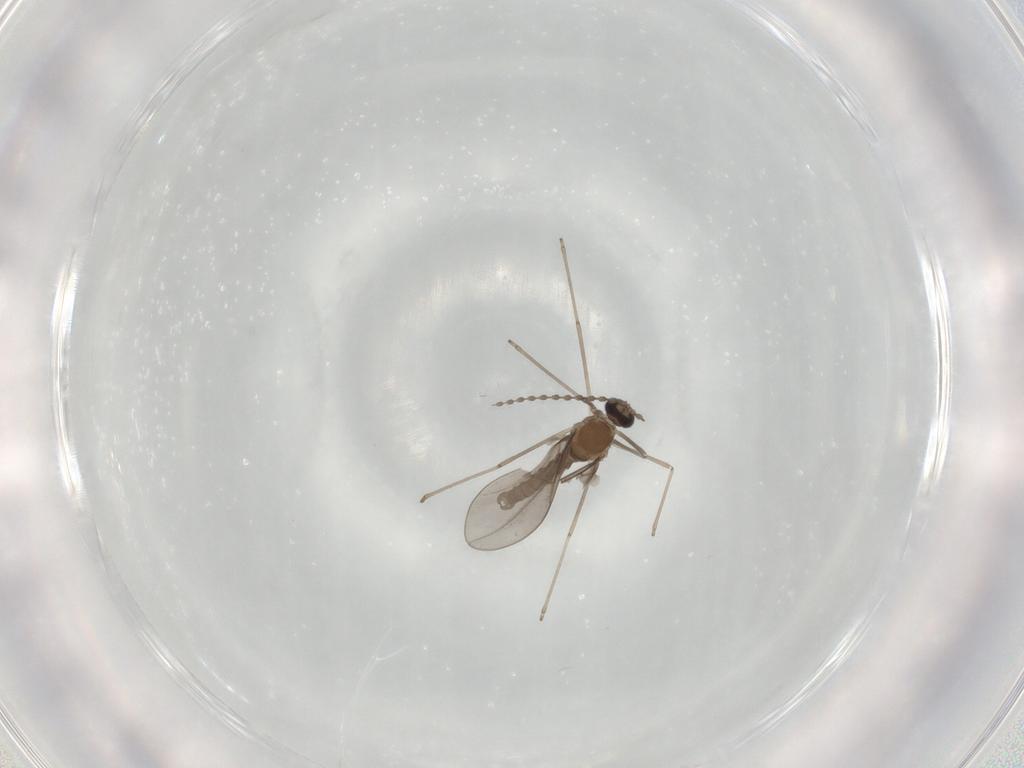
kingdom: Animalia
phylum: Arthropoda
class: Insecta
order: Diptera
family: Cecidomyiidae
